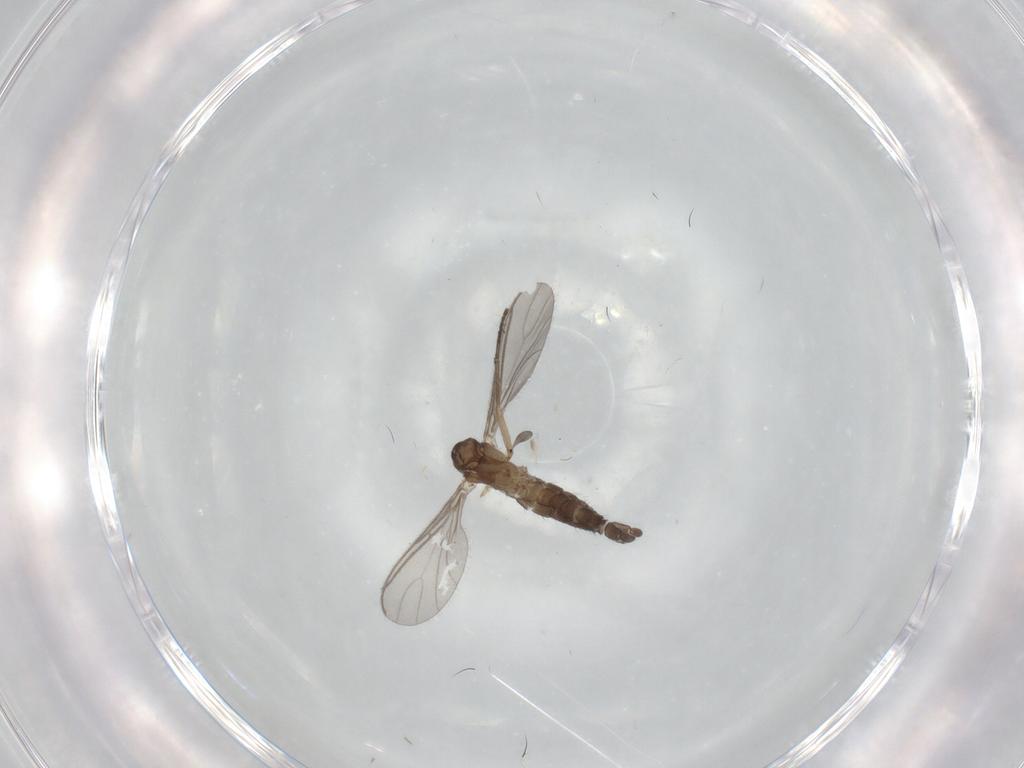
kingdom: Animalia
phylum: Arthropoda
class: Insecta
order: Diptera
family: Sciaridae
